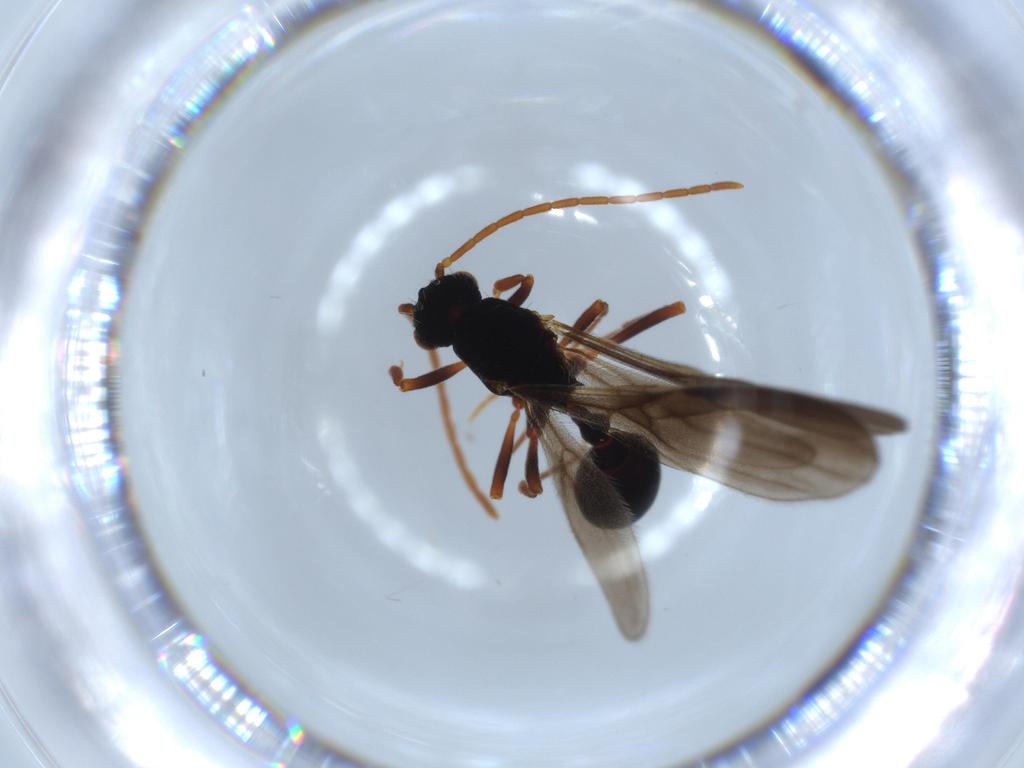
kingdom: Animalia
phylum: Arthropoda
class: Insecta
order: Hymenoptera
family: Formicidae
